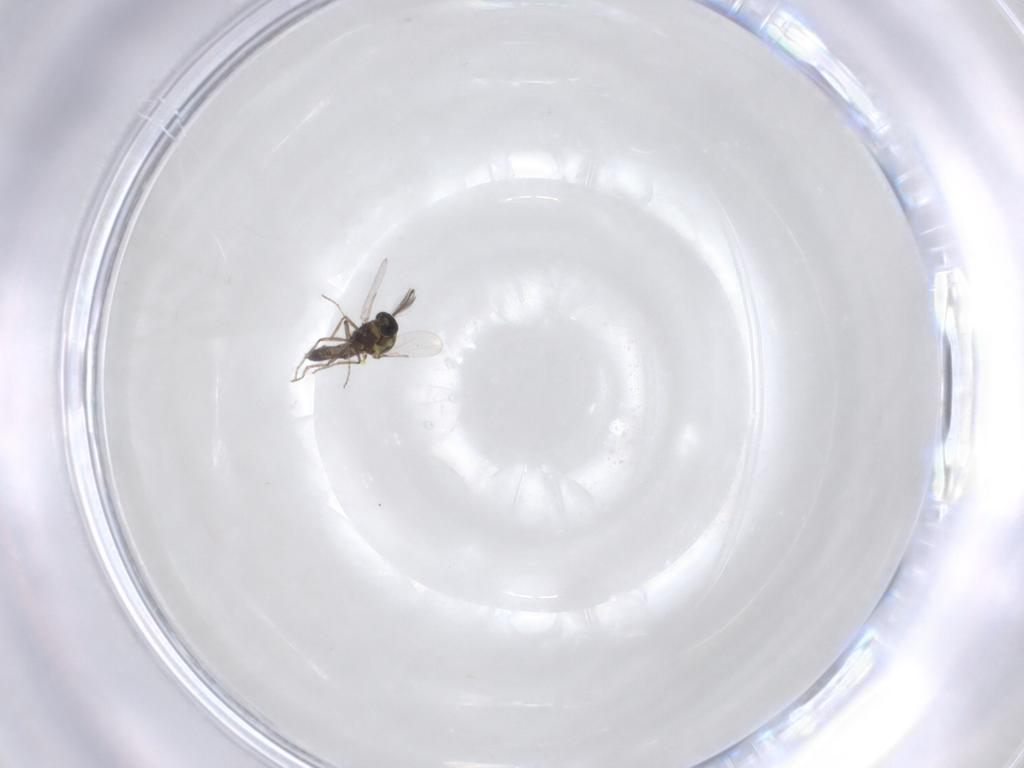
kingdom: Animalia
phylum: Arthropoda
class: Insecta
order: Diptera
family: Ceratopogonidae
